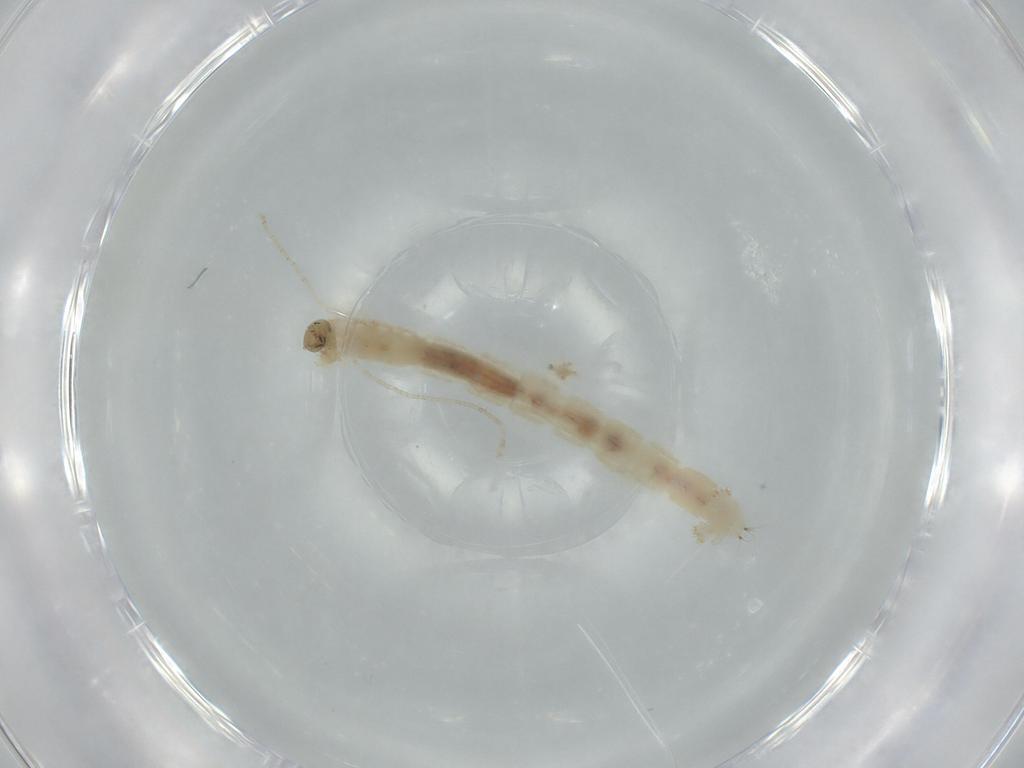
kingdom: Animalia
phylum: Arthropoda
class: Insecta
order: Diptera
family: Chironomidae
